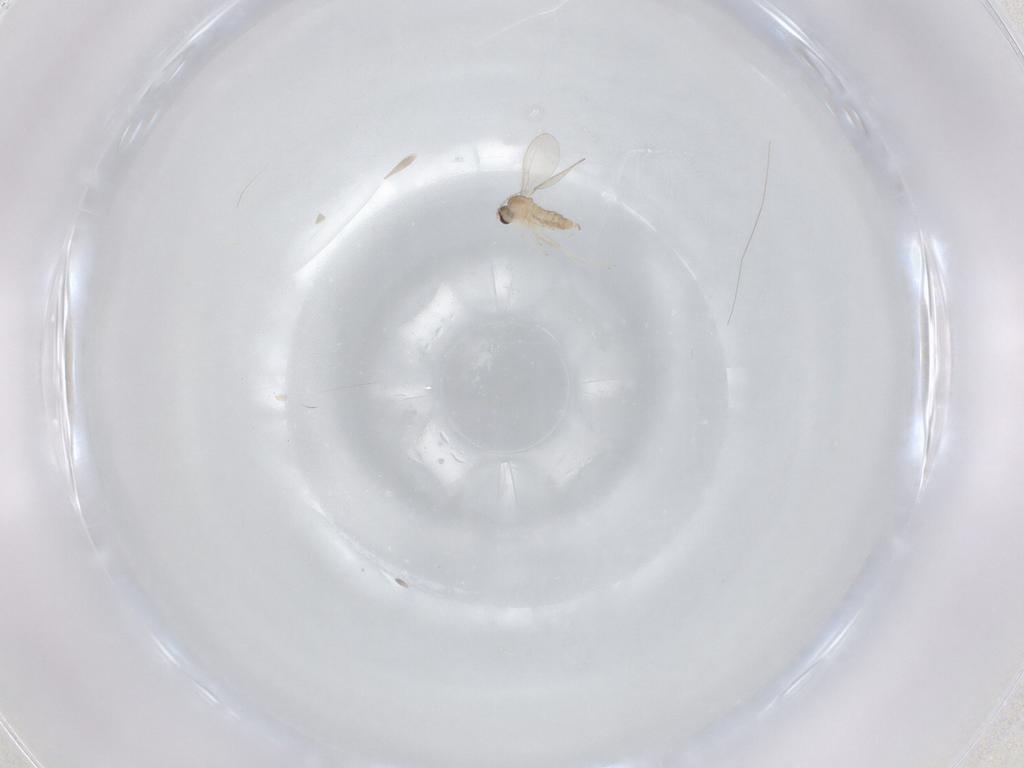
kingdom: Animalia
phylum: Arthropoda
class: Insecta
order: Diptera
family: Cecidomyiidae
